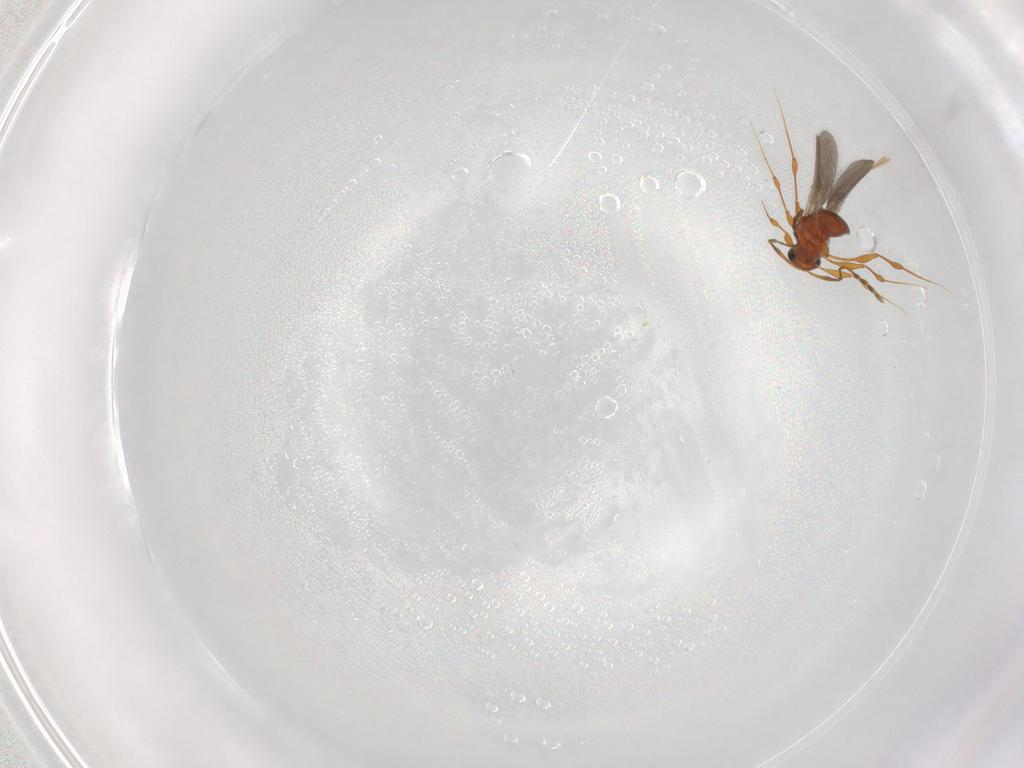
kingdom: Animalia
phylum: Arthropoda
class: Insecta
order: Hymenoptera
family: Platygastridae
